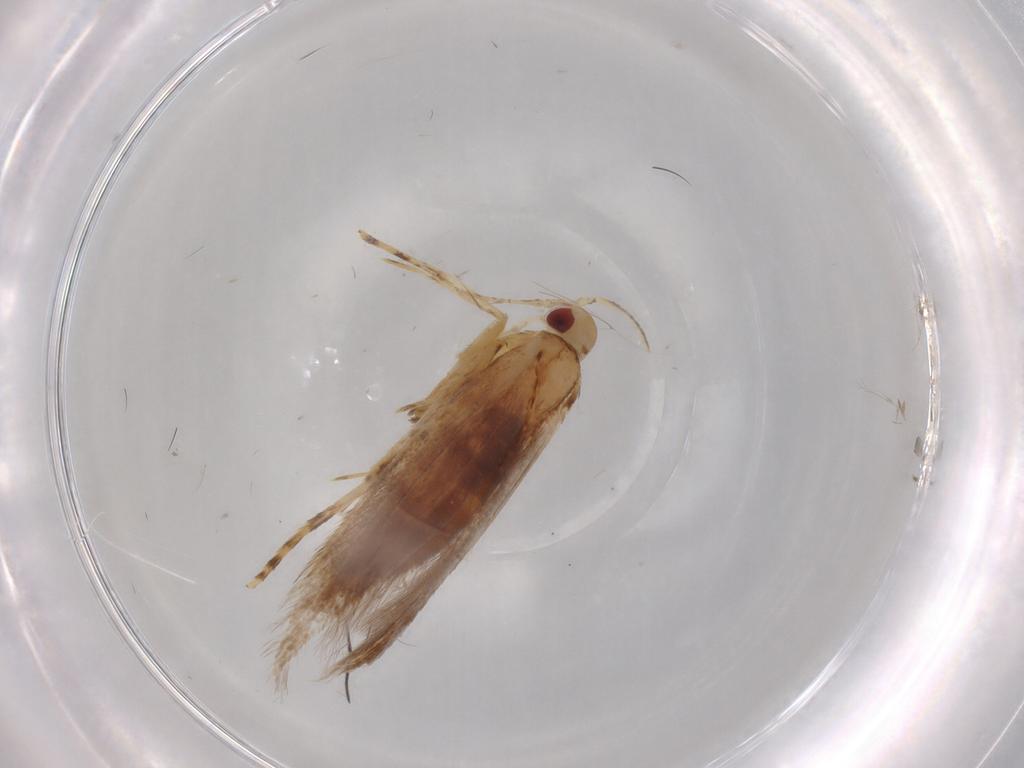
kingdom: Animalia
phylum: Arthropoda
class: Insecta
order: Lepidoptera
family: Cosmopterigidae
